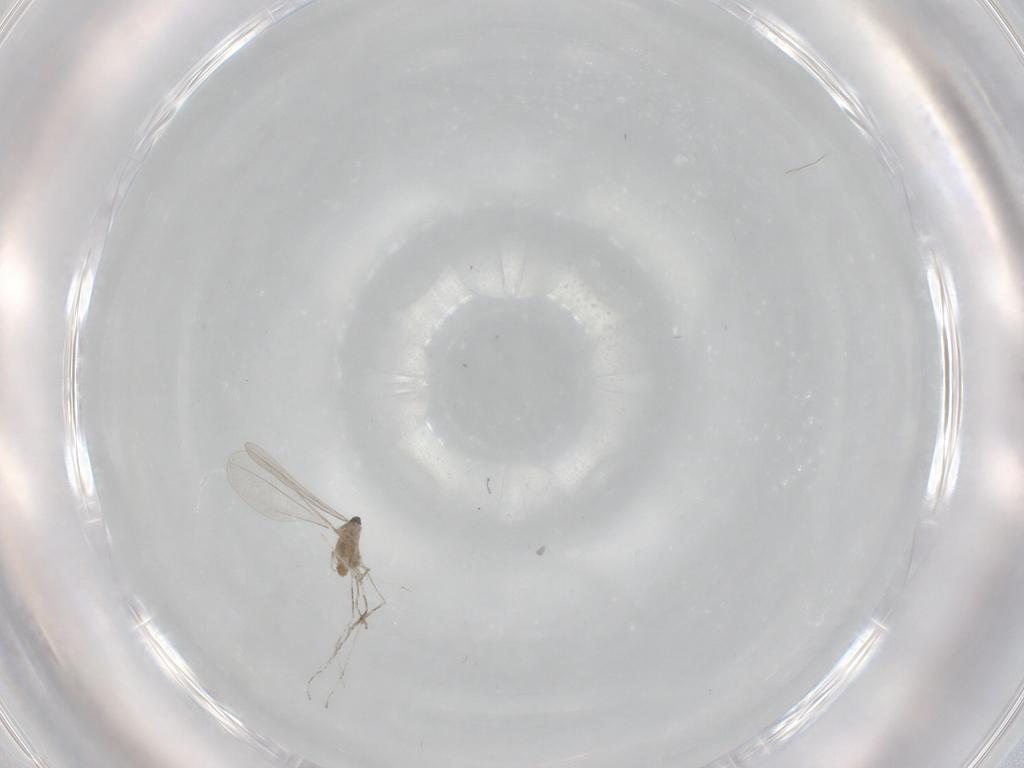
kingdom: Animalia
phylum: Arthropoda
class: Insecta
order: Diptera
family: Cecidomyiidae
